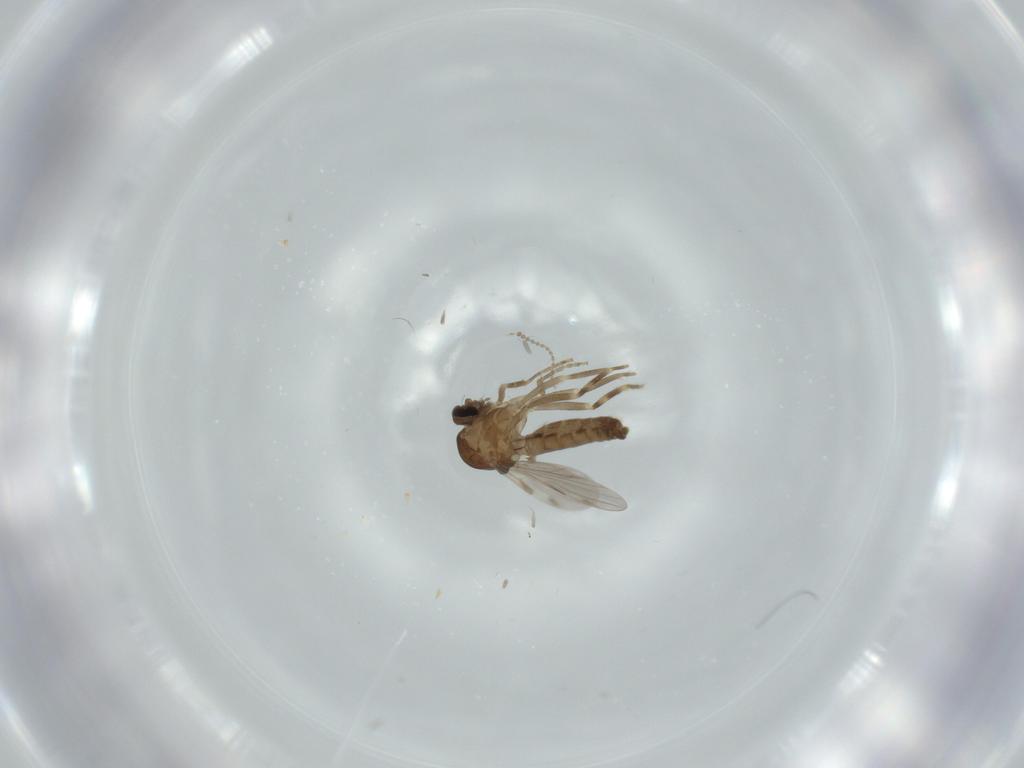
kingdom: Animalia
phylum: Arthropoda
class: Insecta
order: Diptera
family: Ceratopogonidae
